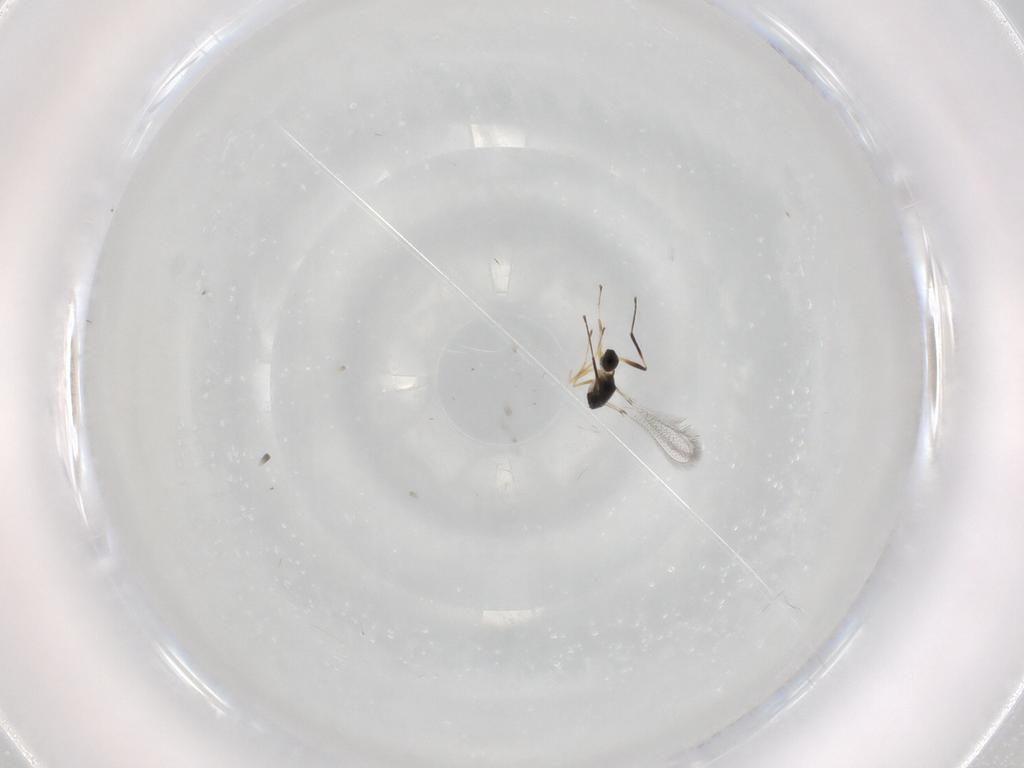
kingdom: Animalia
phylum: Arthropoda
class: Insecta
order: Hymenoptera
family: Mymaridae
